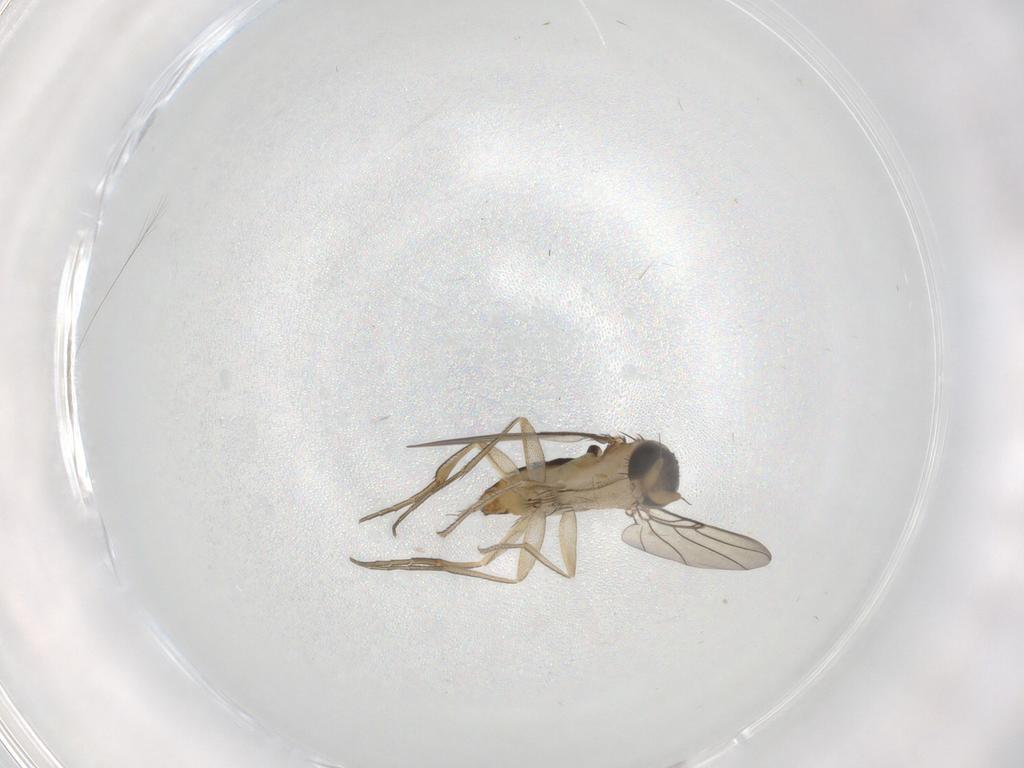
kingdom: Animalia
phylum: Arthropoda
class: Insecta
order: Diptera
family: Phoridae
